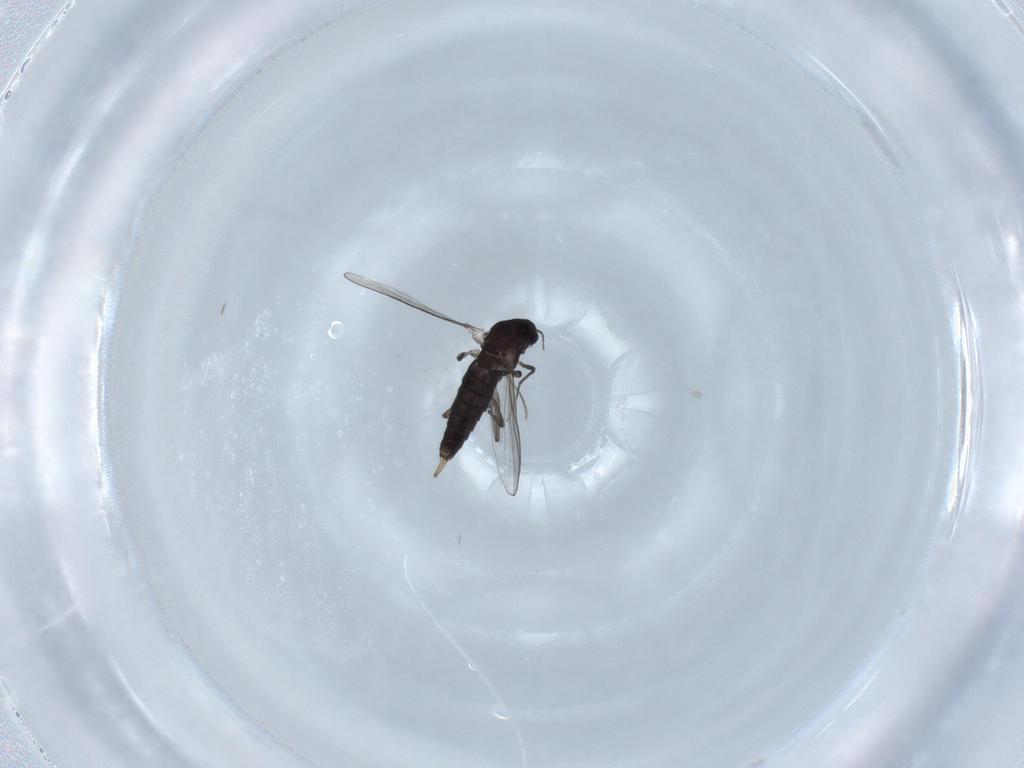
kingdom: Animalia
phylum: Arthropoda
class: Insecta
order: Diptera
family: Chironomidae
